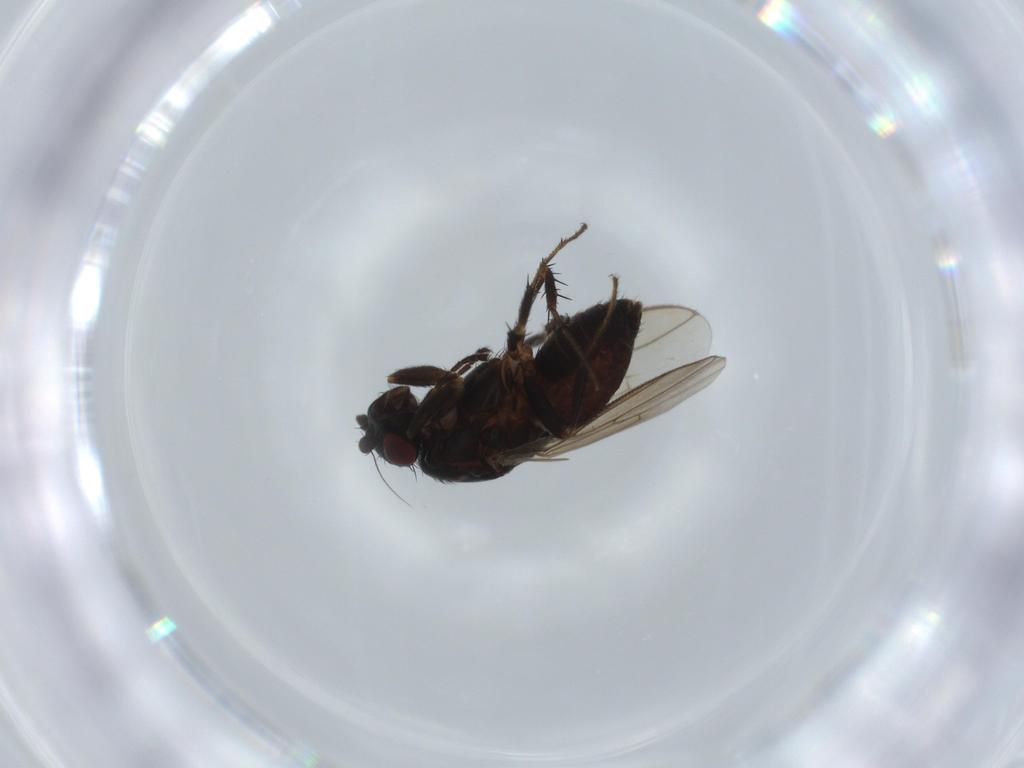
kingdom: Animalia
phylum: Arthropoda
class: Insecta
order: Diptera
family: Sphaeroceridae
